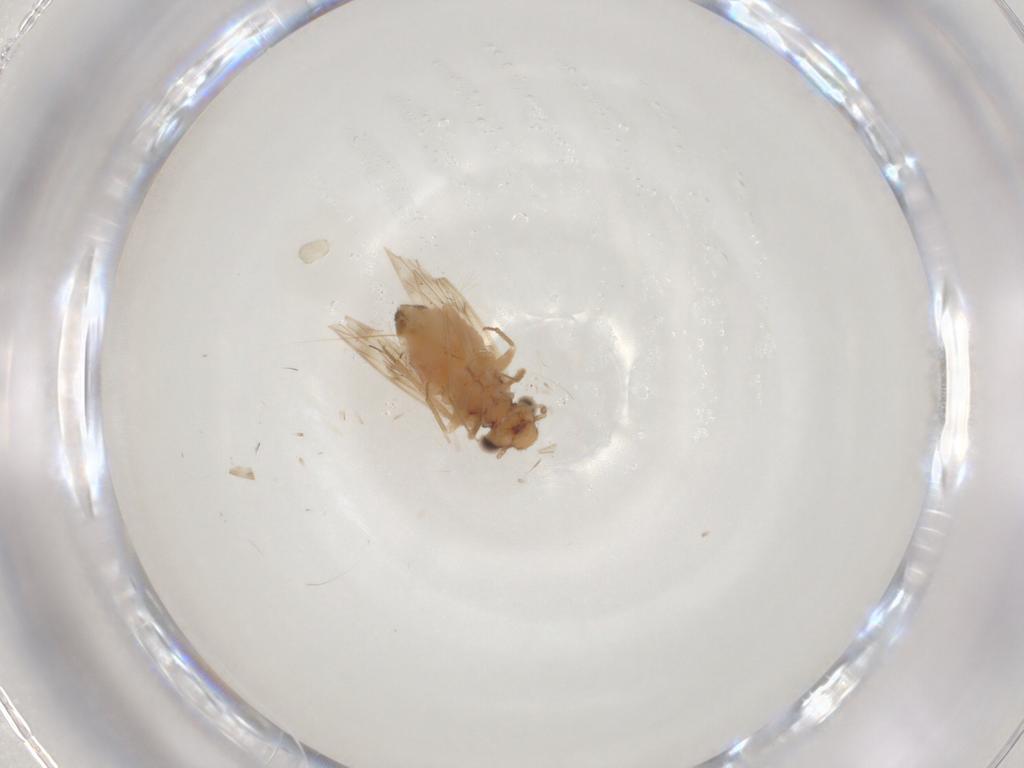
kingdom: Animalia
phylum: Arthropoda
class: Insecta
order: Psocodea
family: Lepidopsocidae
